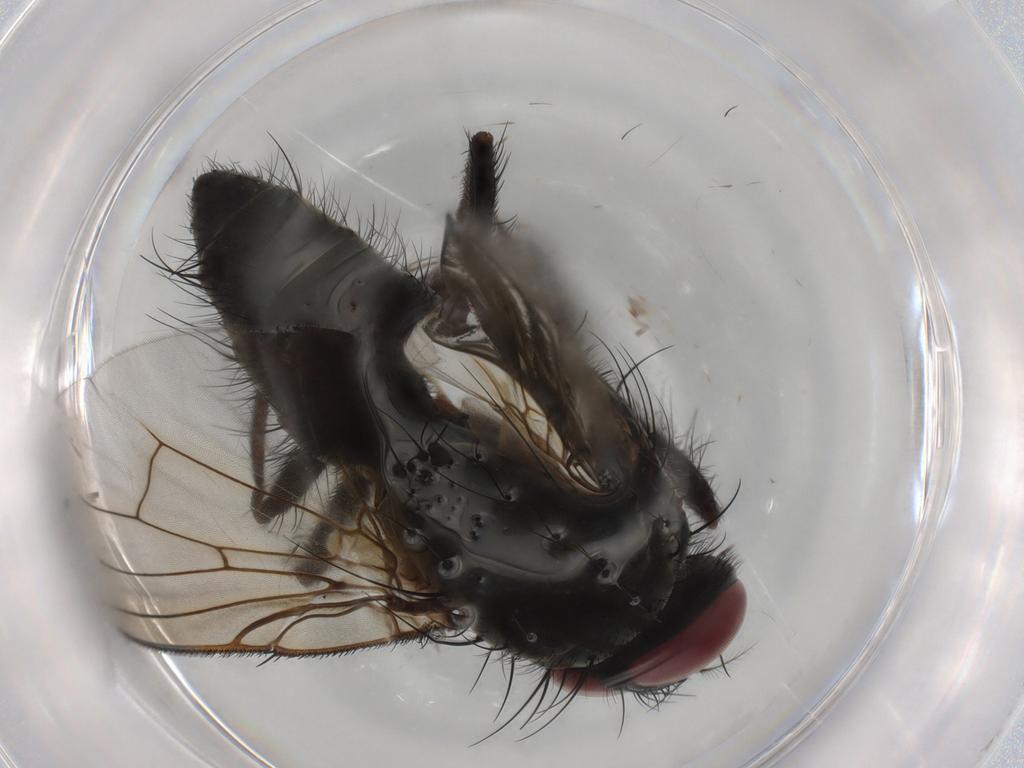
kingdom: Animalia
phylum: Arthropoda
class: Insecta
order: Diptera
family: Muscidae
